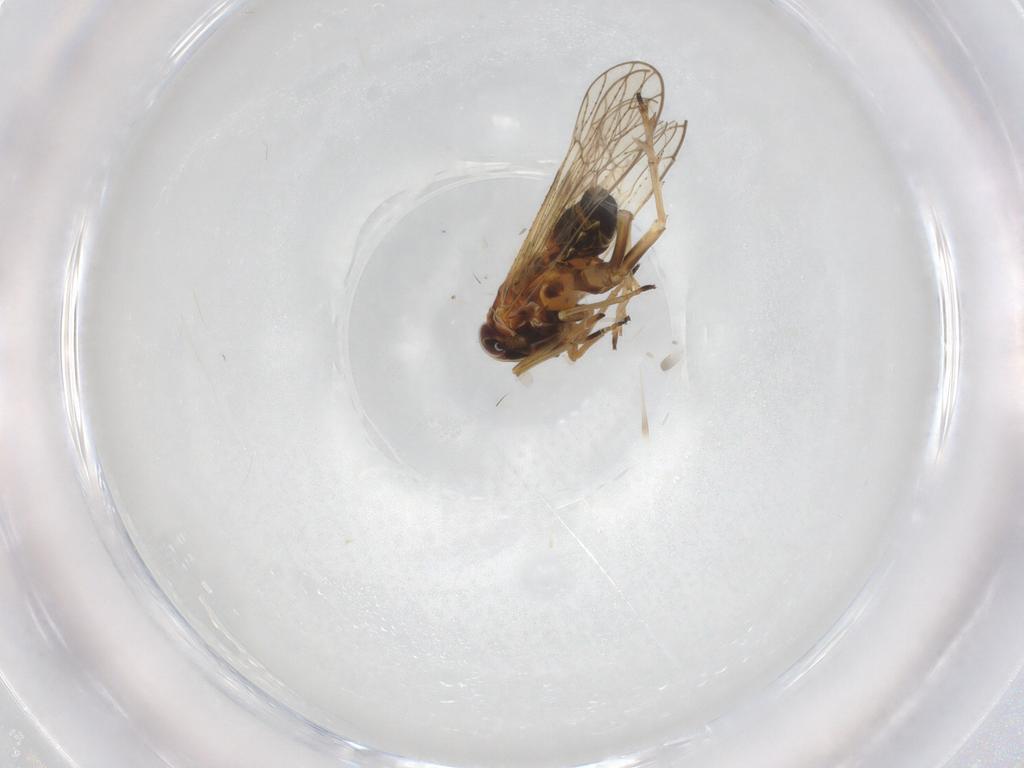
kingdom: Animalia
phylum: Arthropoda
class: Insecta
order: Hemiptera
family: Delphacidae
